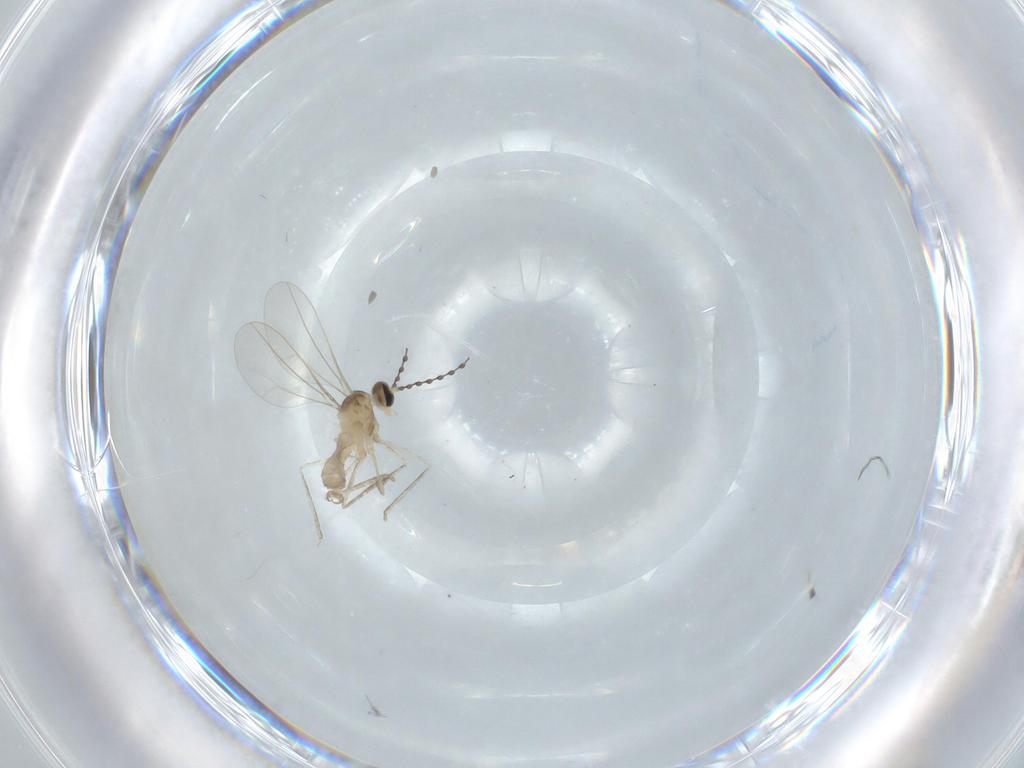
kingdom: Animalia
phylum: Arthropoda
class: Insecta
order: Diptera
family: Cecidomyiidae
